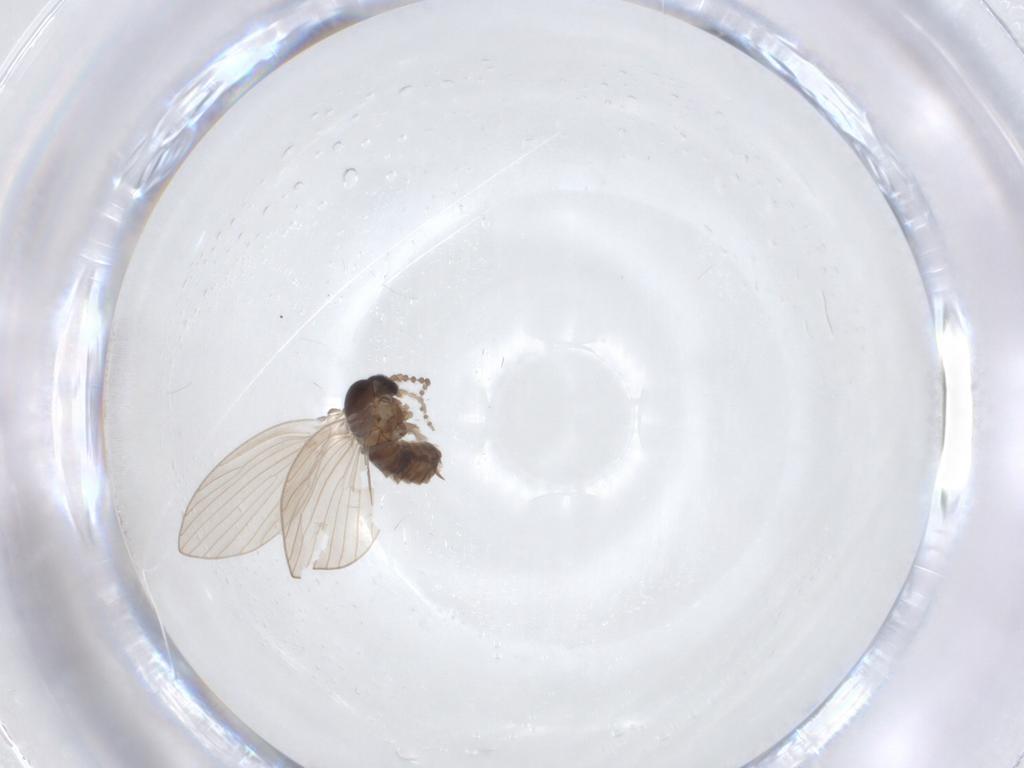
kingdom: Animalia
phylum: Arthropoda
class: Insecta
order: Diptera
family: Psychodidae
